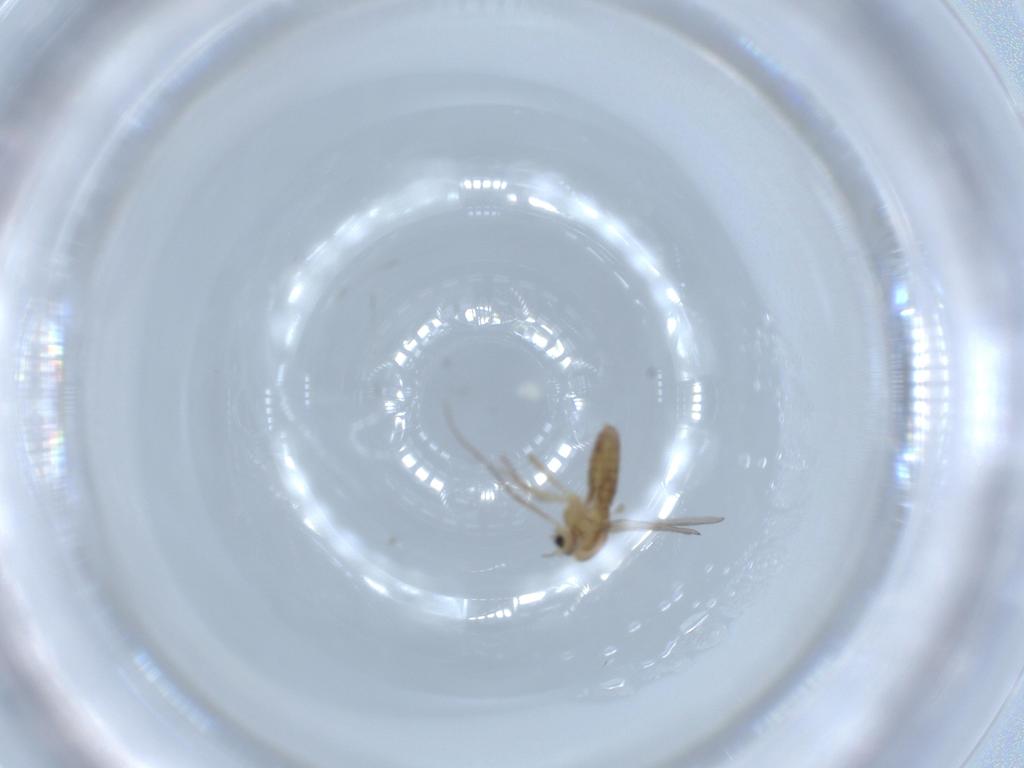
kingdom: Animalia
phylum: Arthropoda
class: Insecta
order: Diptera
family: Chironomidae
